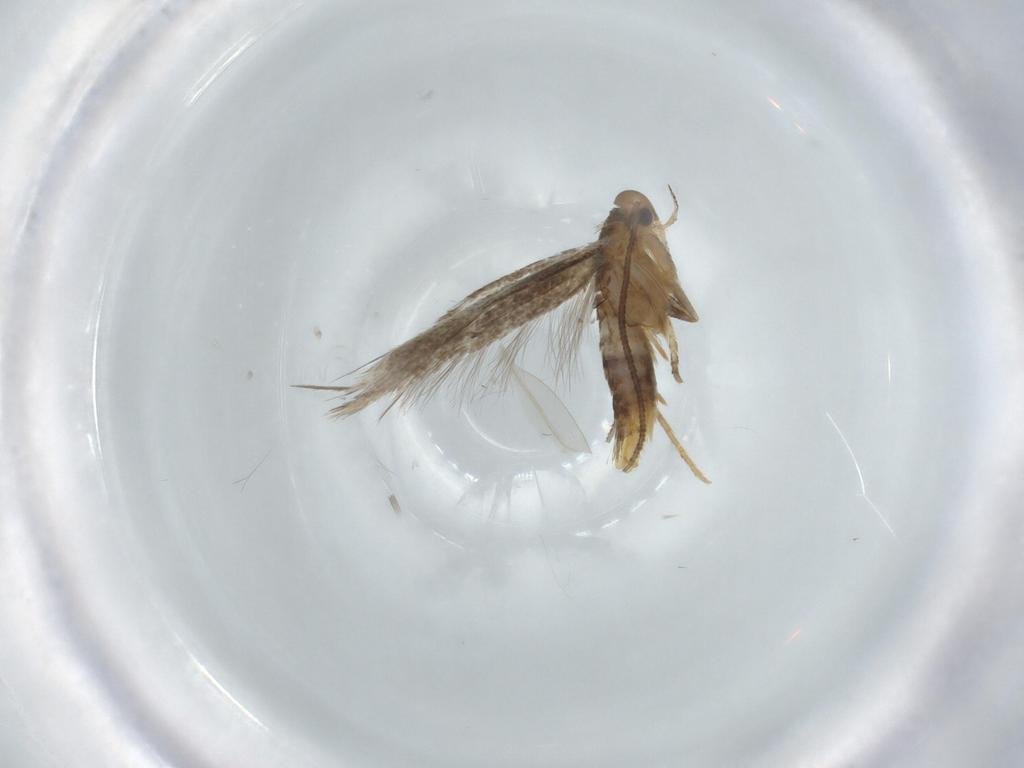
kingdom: Animalia
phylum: Arthropoda
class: Insecta
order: Lepidoptera
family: Elachistidae
